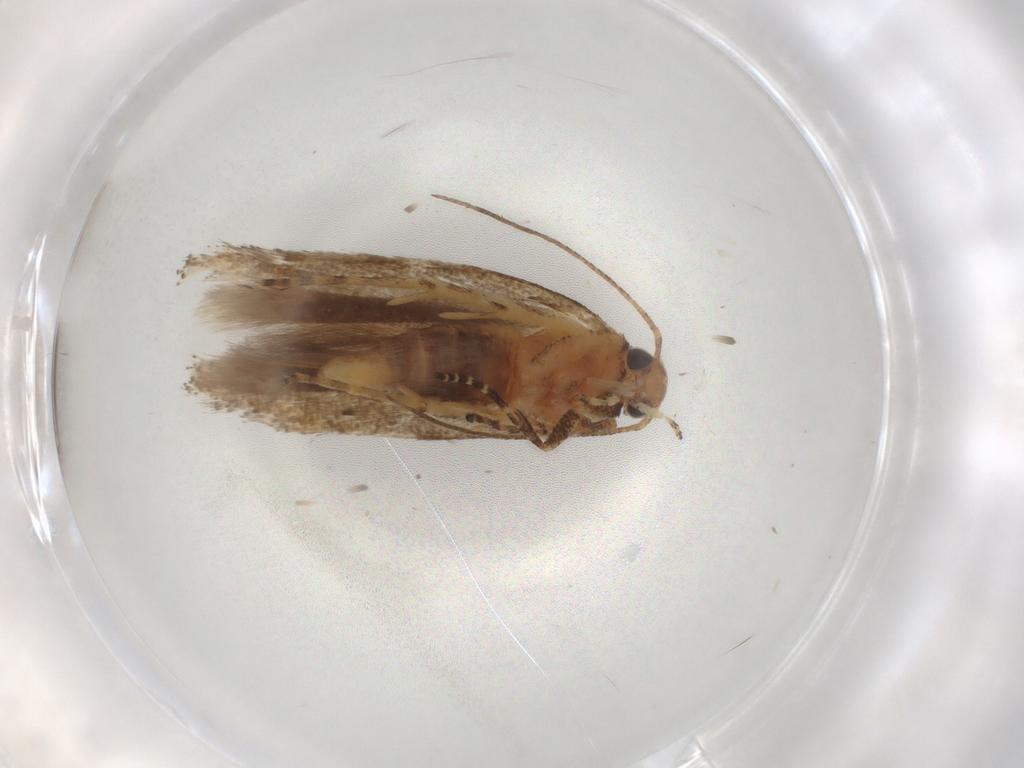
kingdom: Animalia
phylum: Arthropoda
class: Insecta
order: Lepidoptera
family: Gelechiidae
